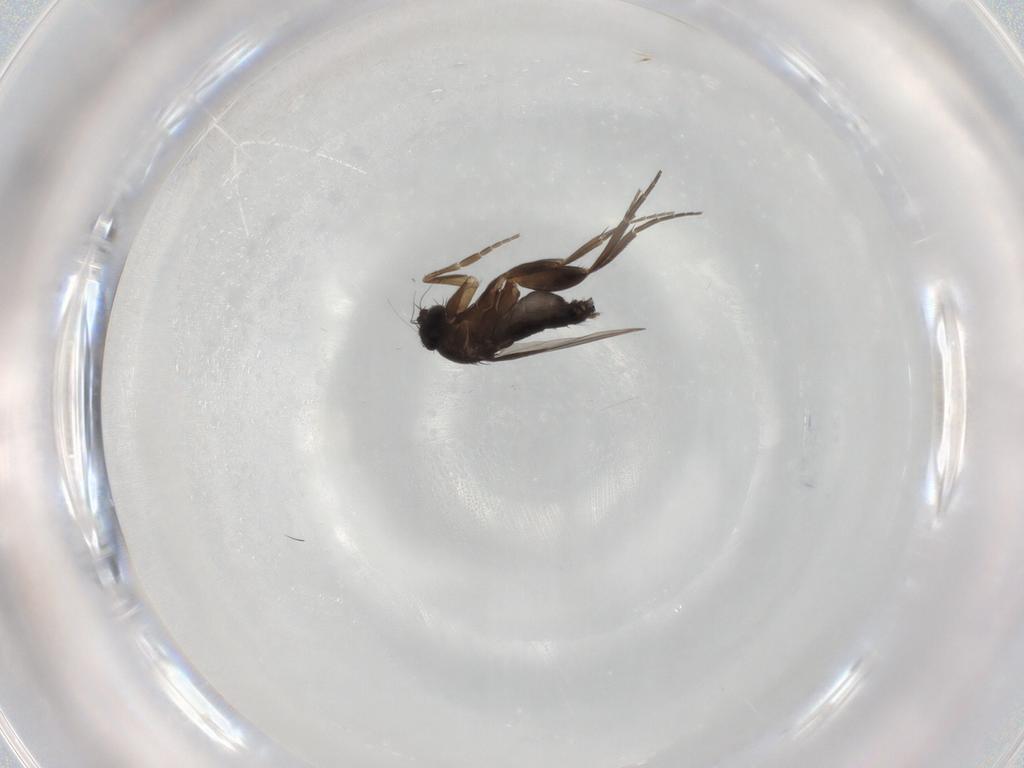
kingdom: Animalia
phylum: Arthropoda
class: Insecta
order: Diptera
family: Phoridae
